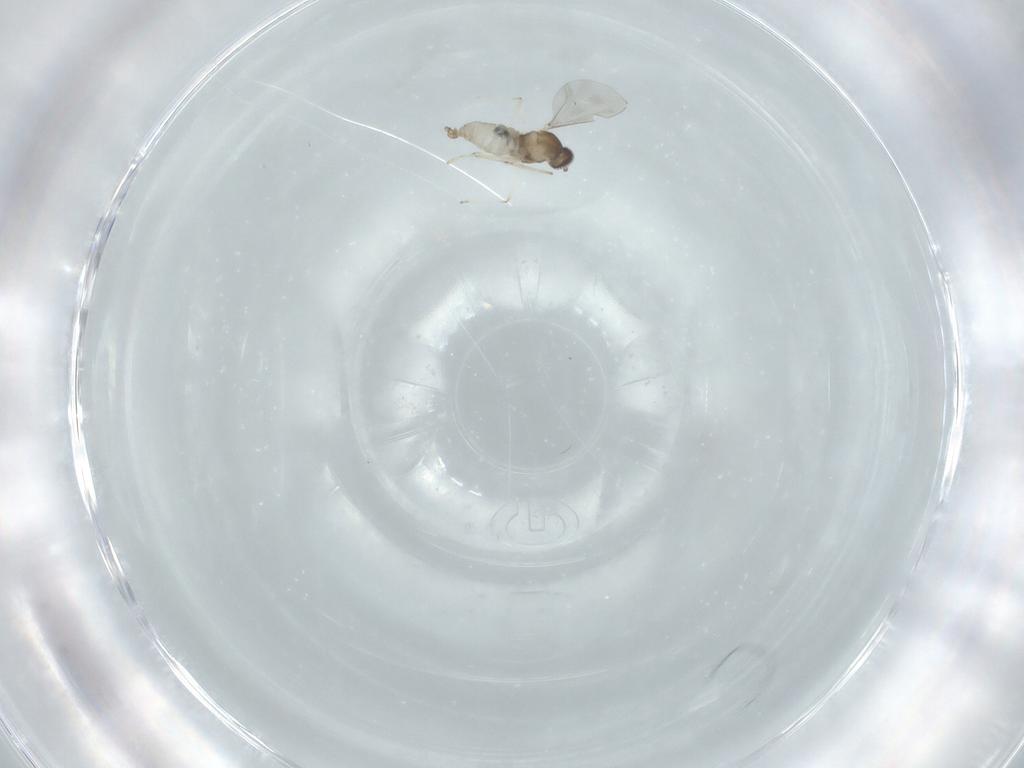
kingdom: Animalia
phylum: Arthropoda
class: Insecta
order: Diptera
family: Cecidomyiidae
